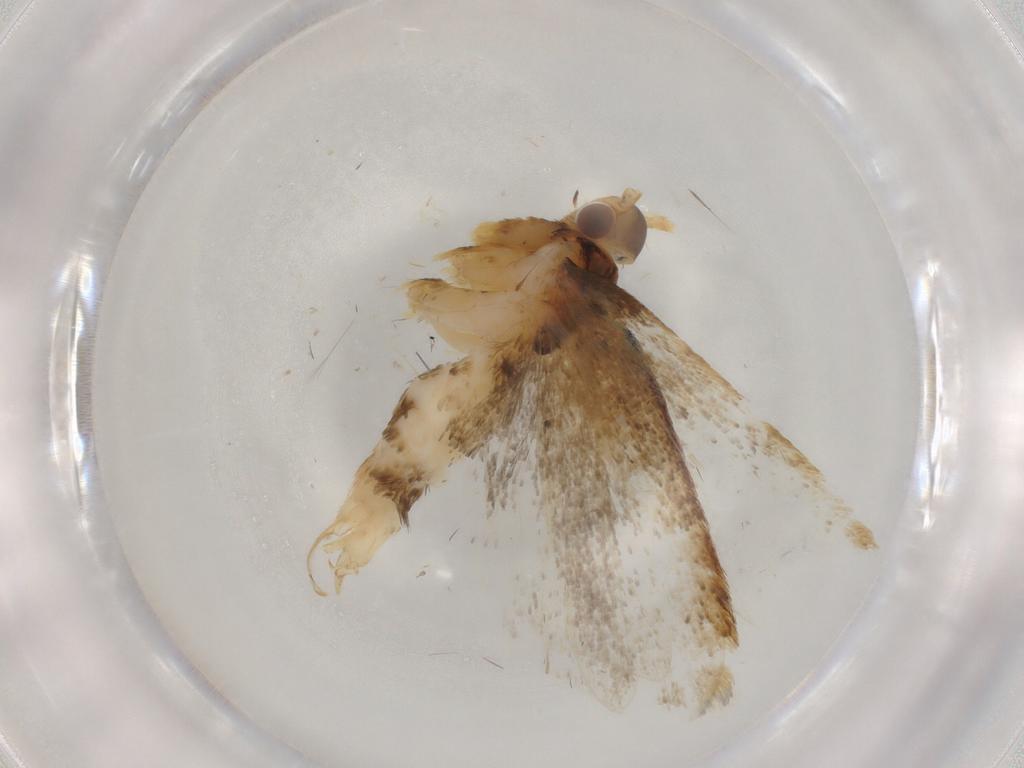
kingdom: Animalia
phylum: Arthropoda
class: Insecta
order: Lepidoptera
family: Lecithoceridae
